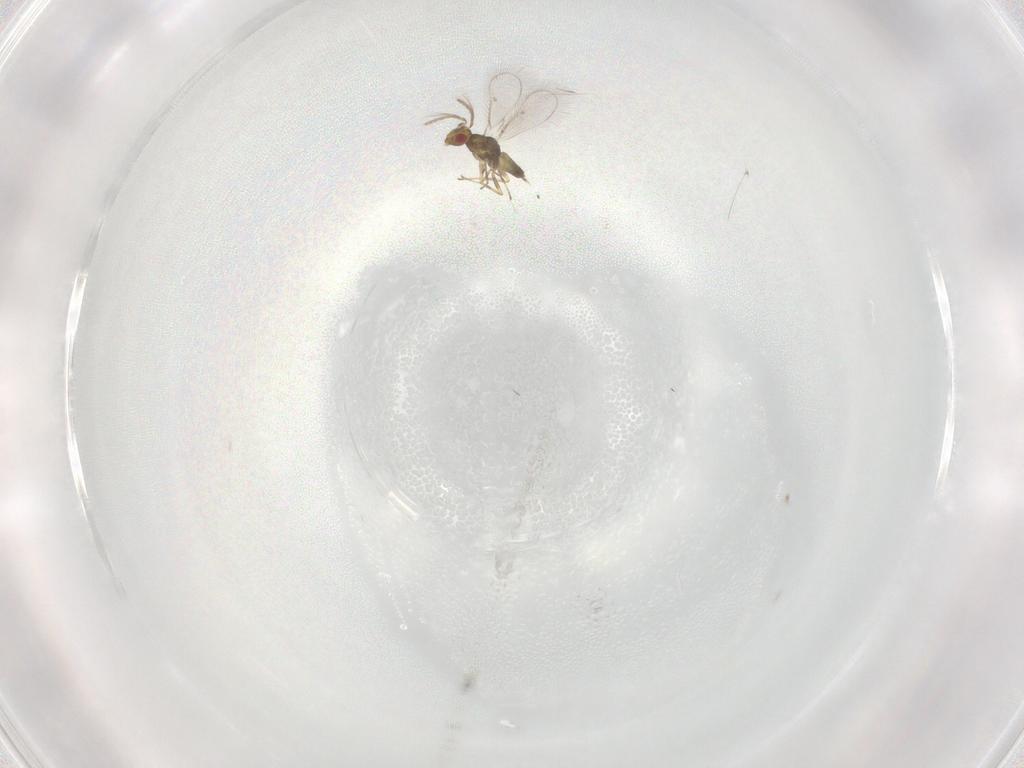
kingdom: Animalia
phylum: Arthropoda
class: Insecta
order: Hymenoptera
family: Eulophidae
